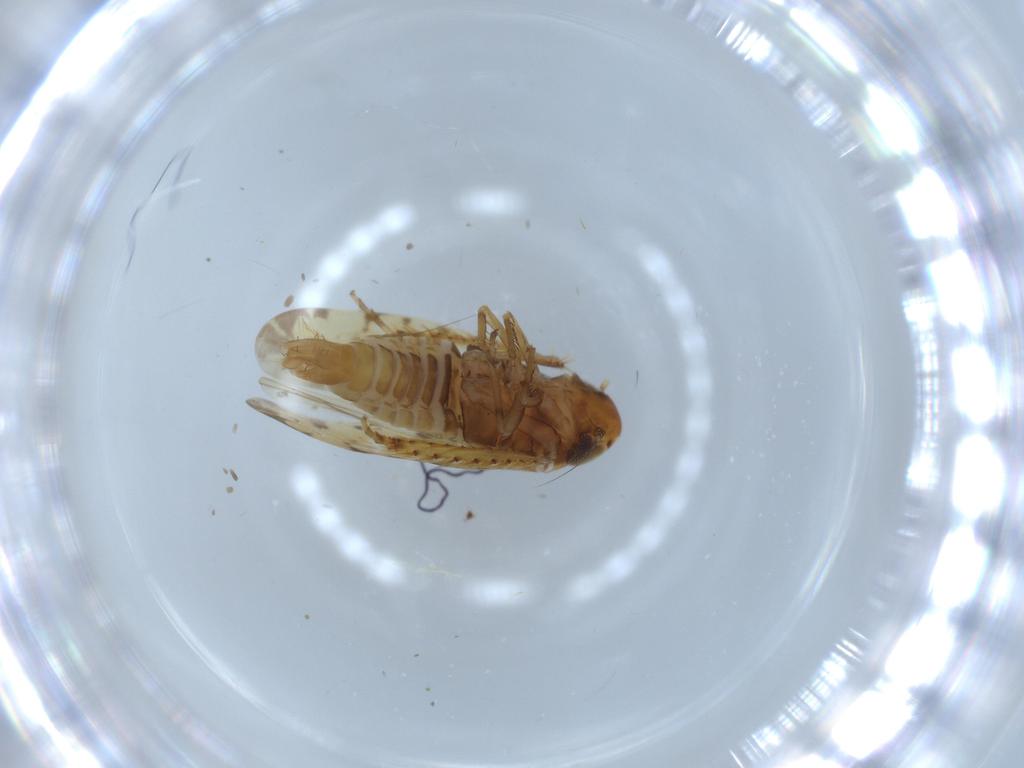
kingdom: Animalia
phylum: Arthropoda
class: Insecta
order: Hemiptera
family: Cicadellidae
